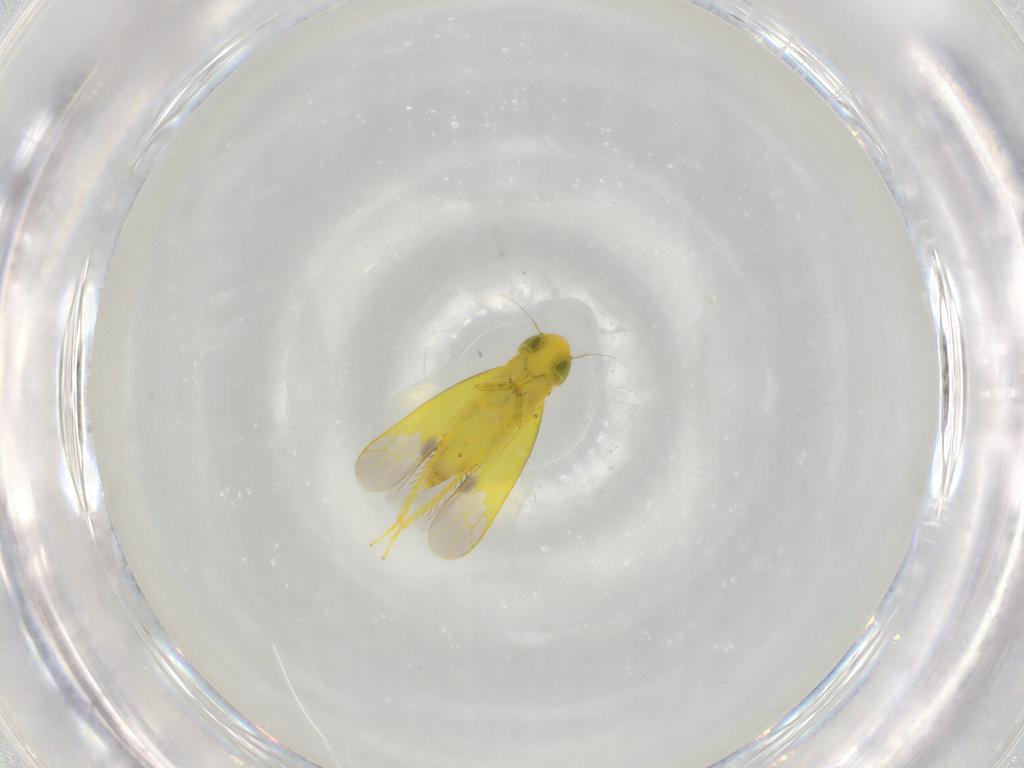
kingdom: Animalia
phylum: Arthropoda
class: Insecta
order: Hemiptera
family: Cicadellidae
